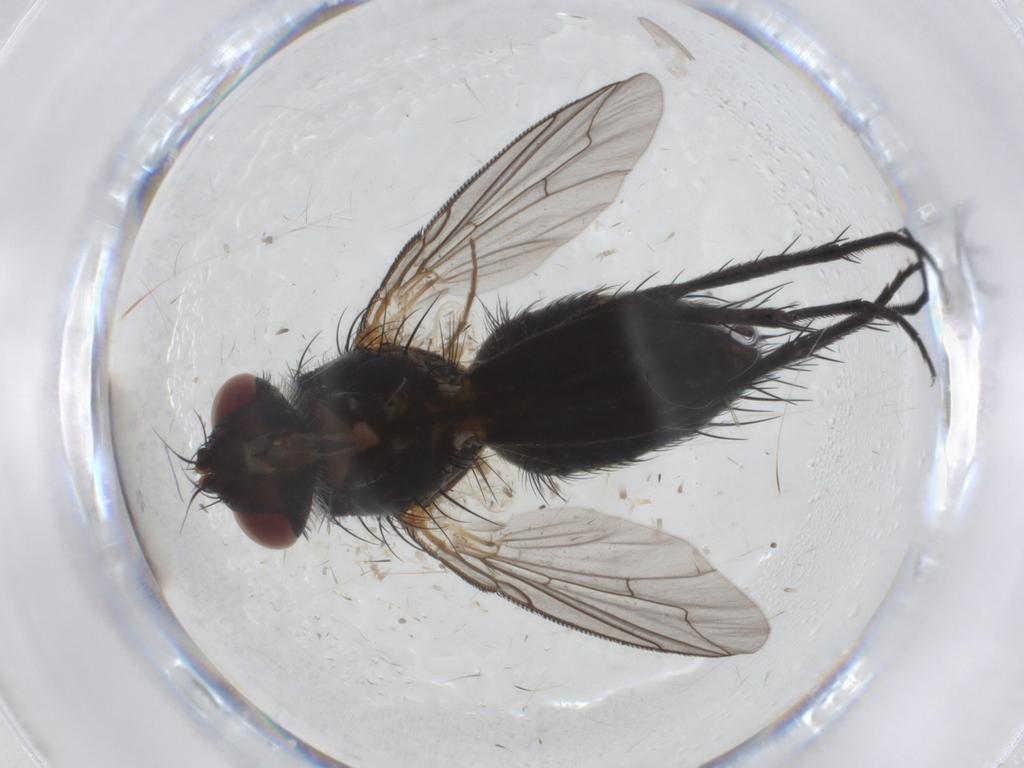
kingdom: Animalia
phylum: Arthropoda
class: Insecta
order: Diptera
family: Tachinidae
